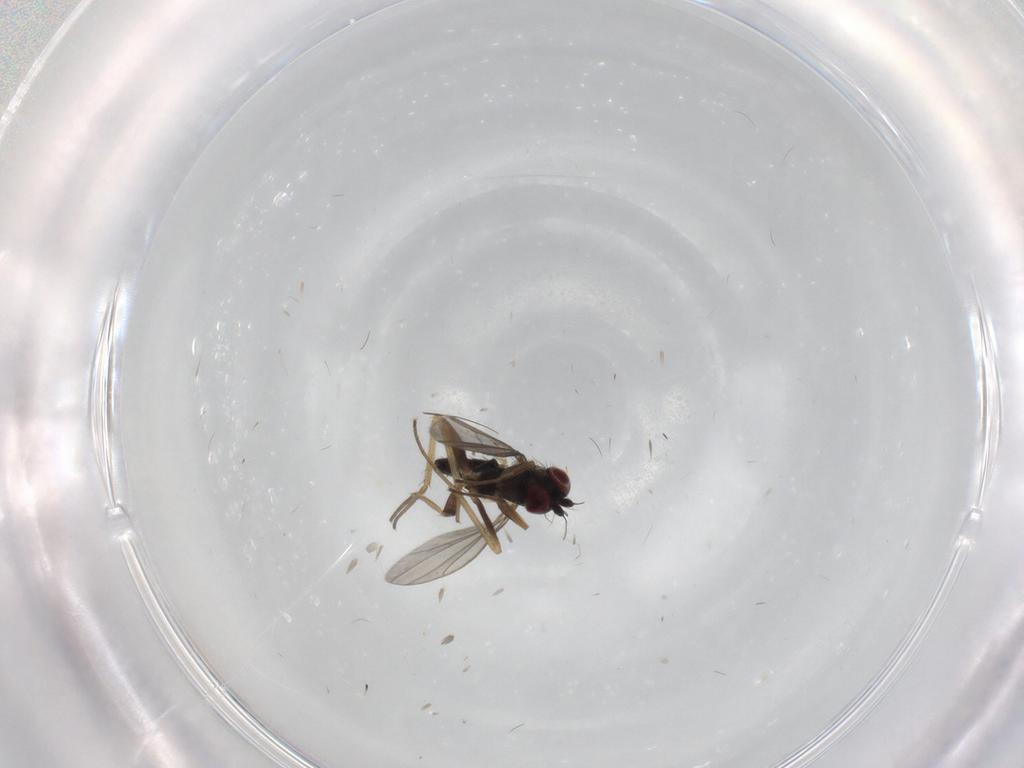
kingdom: Animalia
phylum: Arthropoda
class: Insecta
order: Diptera
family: Dolichopodidae
